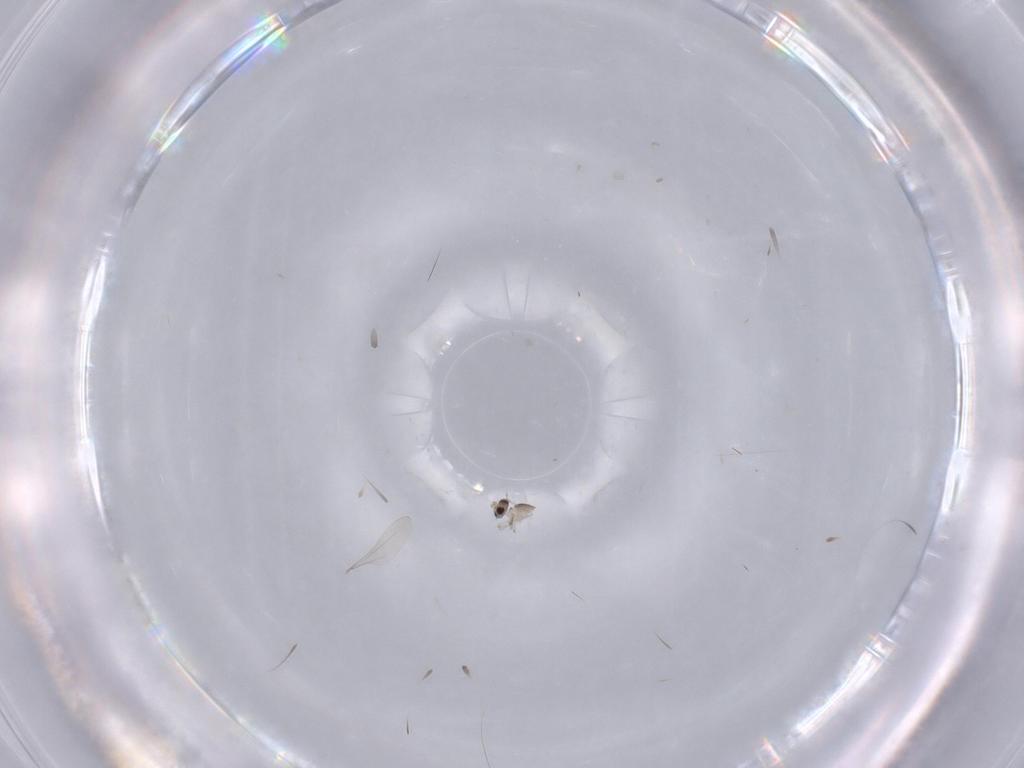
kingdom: Animalia
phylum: Arthropoda
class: Insecta
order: Diptera
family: Cecidomyiidae
